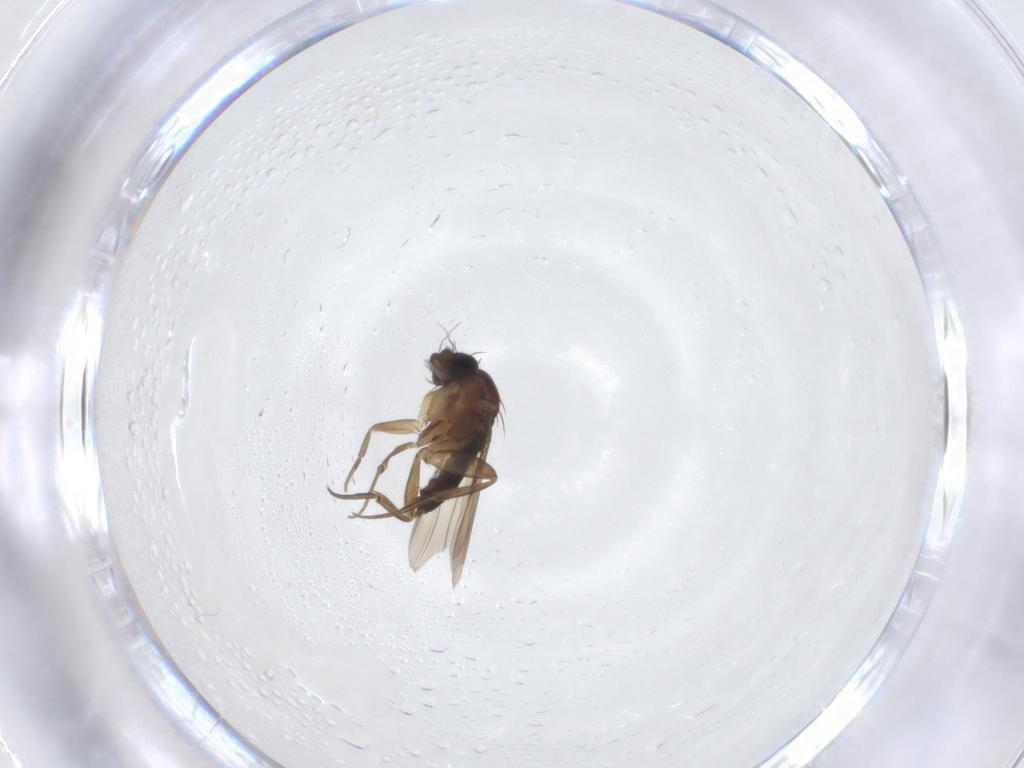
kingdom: Animalia
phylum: Arthropoda
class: Insecta
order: Diptera
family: Phoridae
